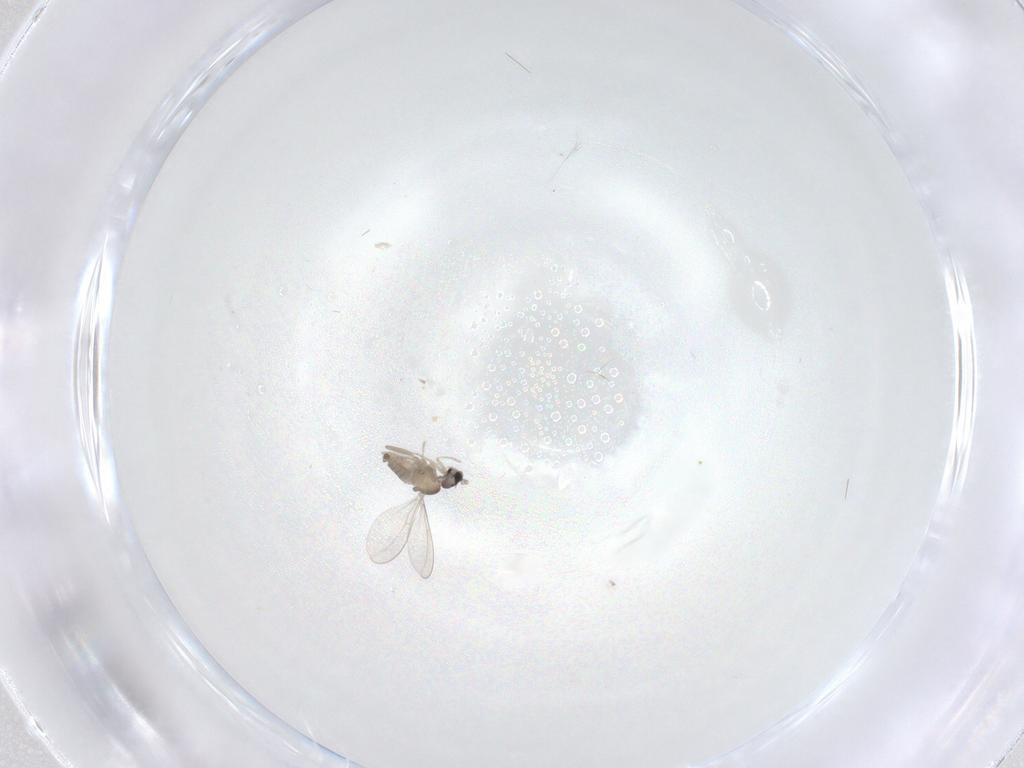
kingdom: Animalia
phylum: Arthropoda
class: Insecta
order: Diptera
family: Cecidomyiidae
